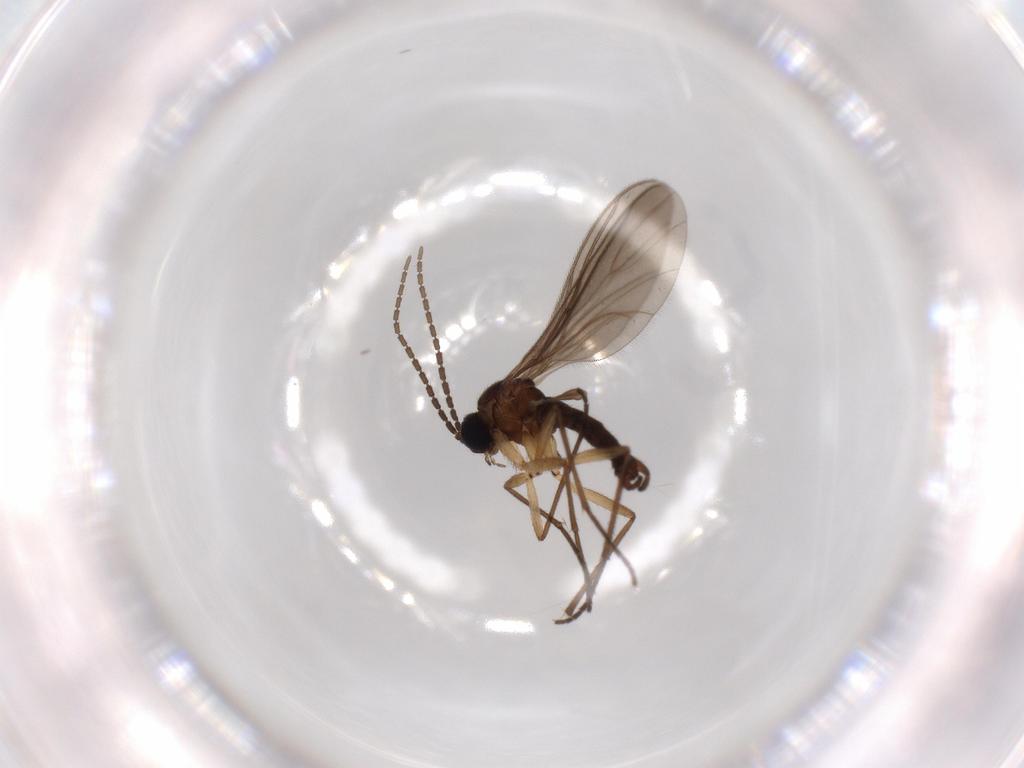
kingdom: Animalia
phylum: Arthropoda
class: Insecta
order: Diptera
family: Sciaridae
